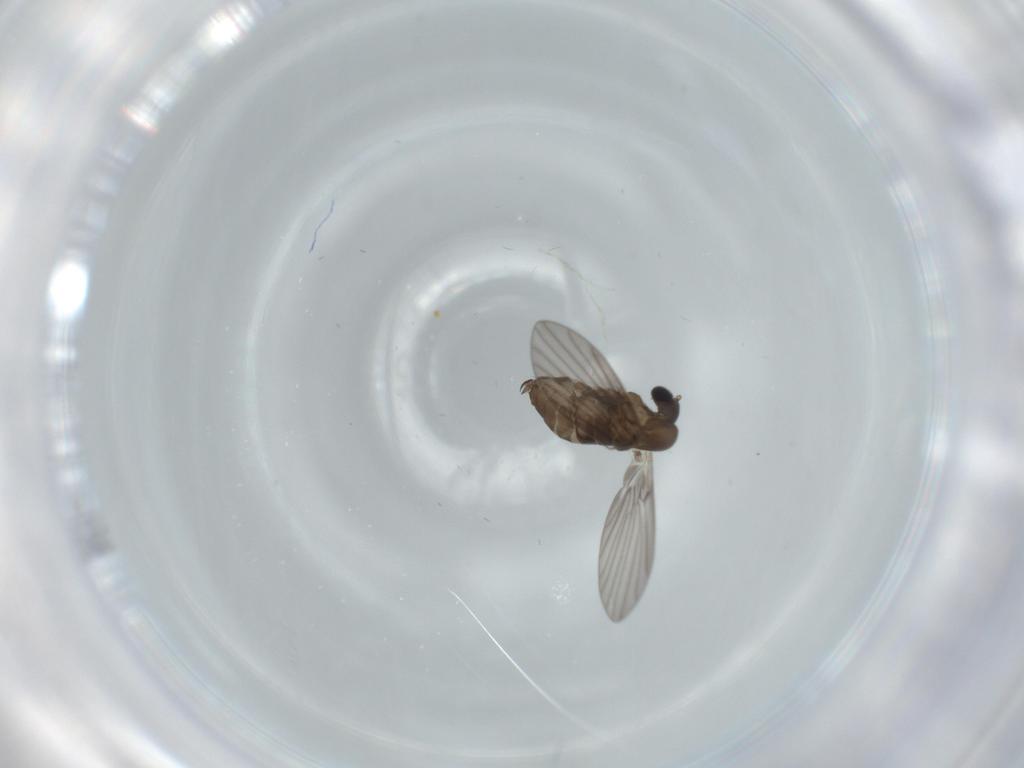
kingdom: Animalia
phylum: Arthropoda
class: Insecta
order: Diptera
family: Psychodidae
